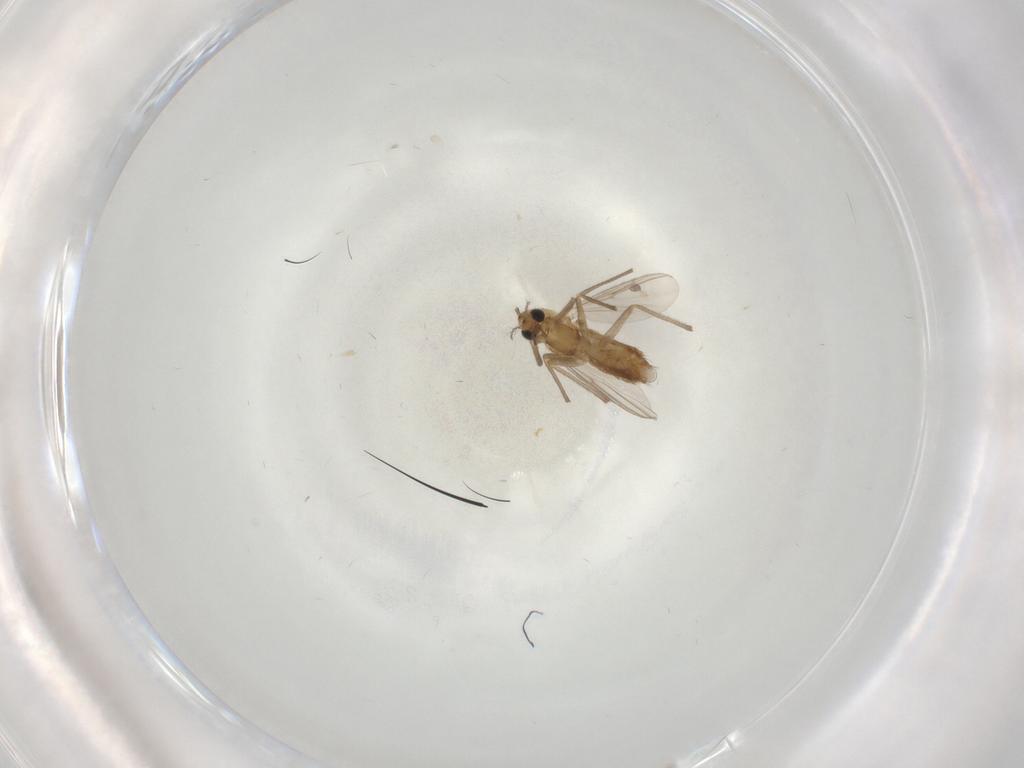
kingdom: Animalia
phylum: Arthropoda
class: Insecta
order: Diptera
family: Chironomidae
